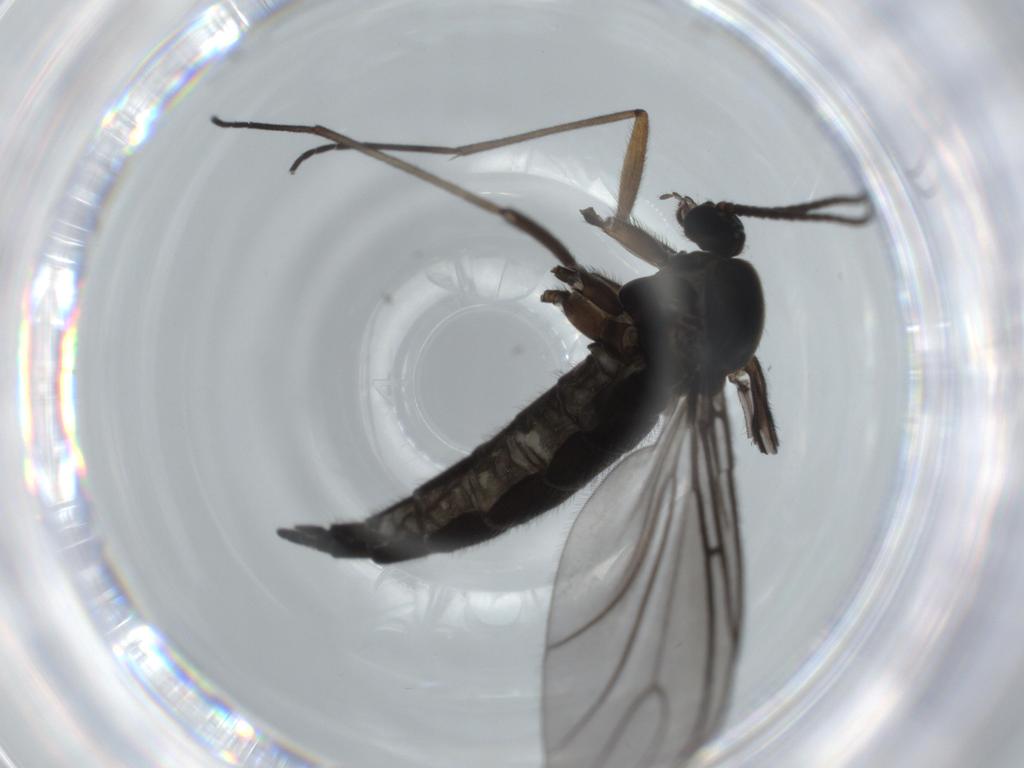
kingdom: Animalia
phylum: Arthropoda
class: Insecta
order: Diptera
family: Sciaridae
